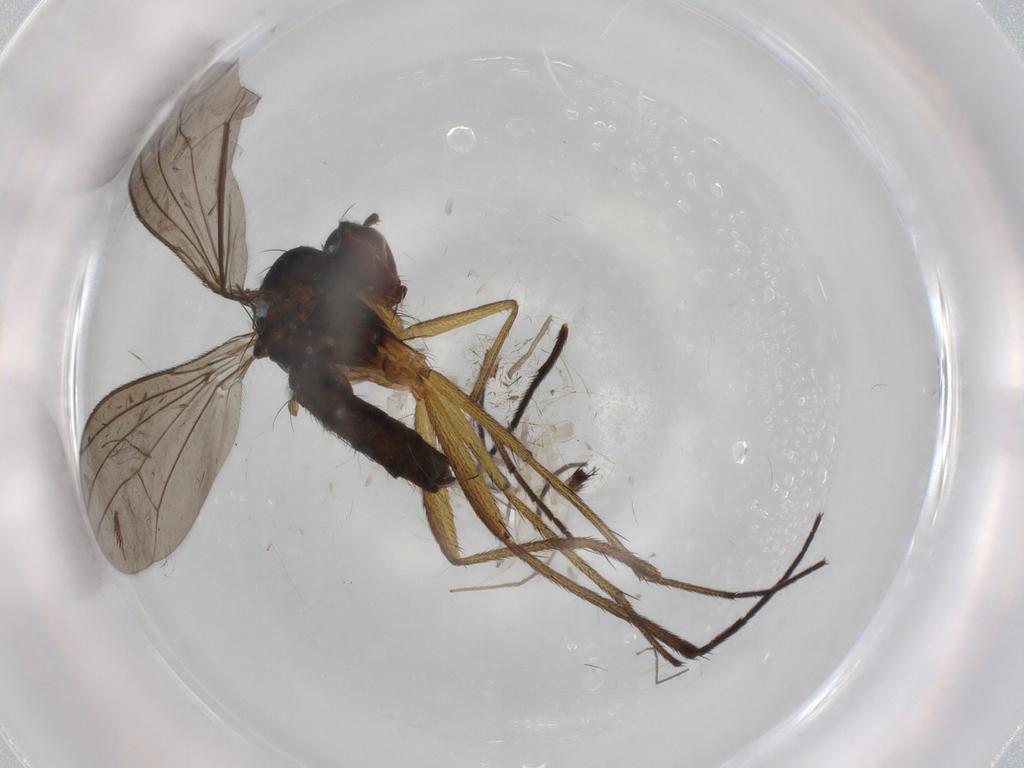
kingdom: Animalia
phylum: Arthropoda
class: Insecta
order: Diptera
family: Dolichopodidae
